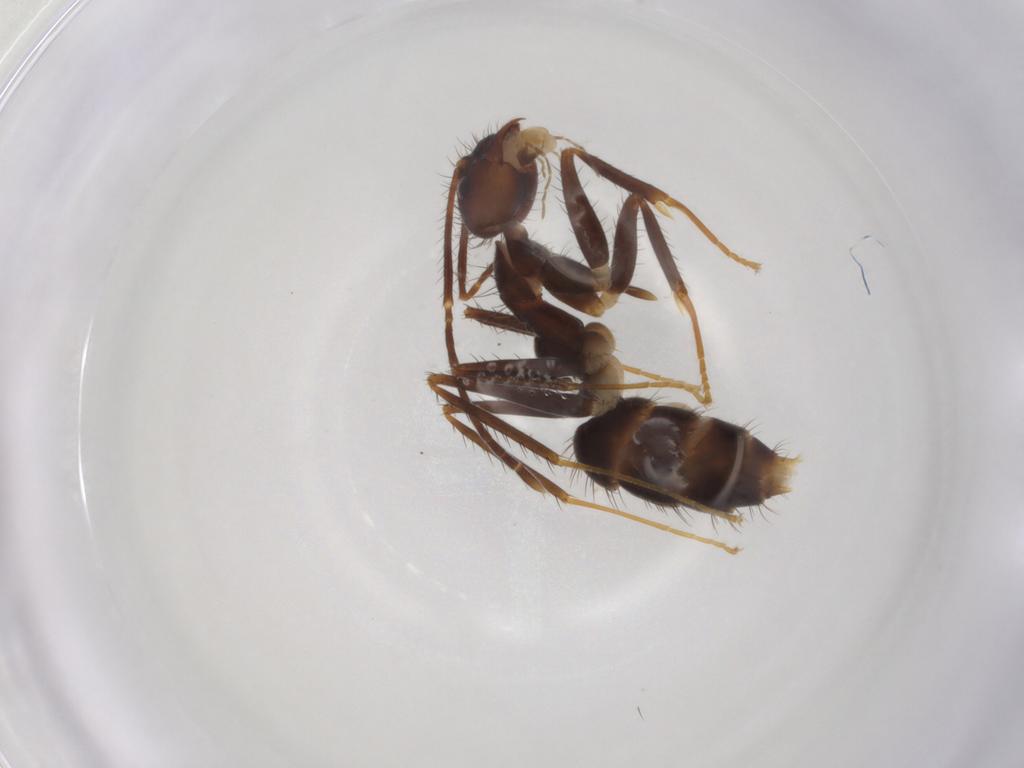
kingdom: Animalia
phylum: Arthropoda
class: Insecta
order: Hymenoptera
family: Formicidae
